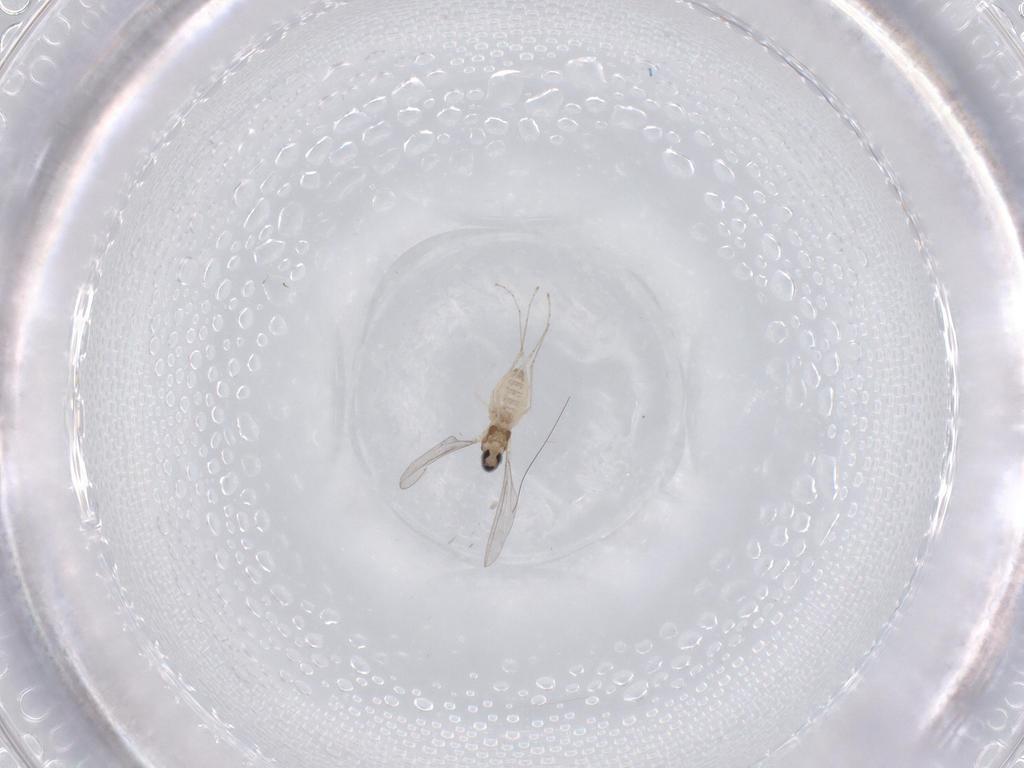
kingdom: Animalia
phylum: Arthropoda
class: Insecta
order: Diptera
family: Cecidomyiidae
